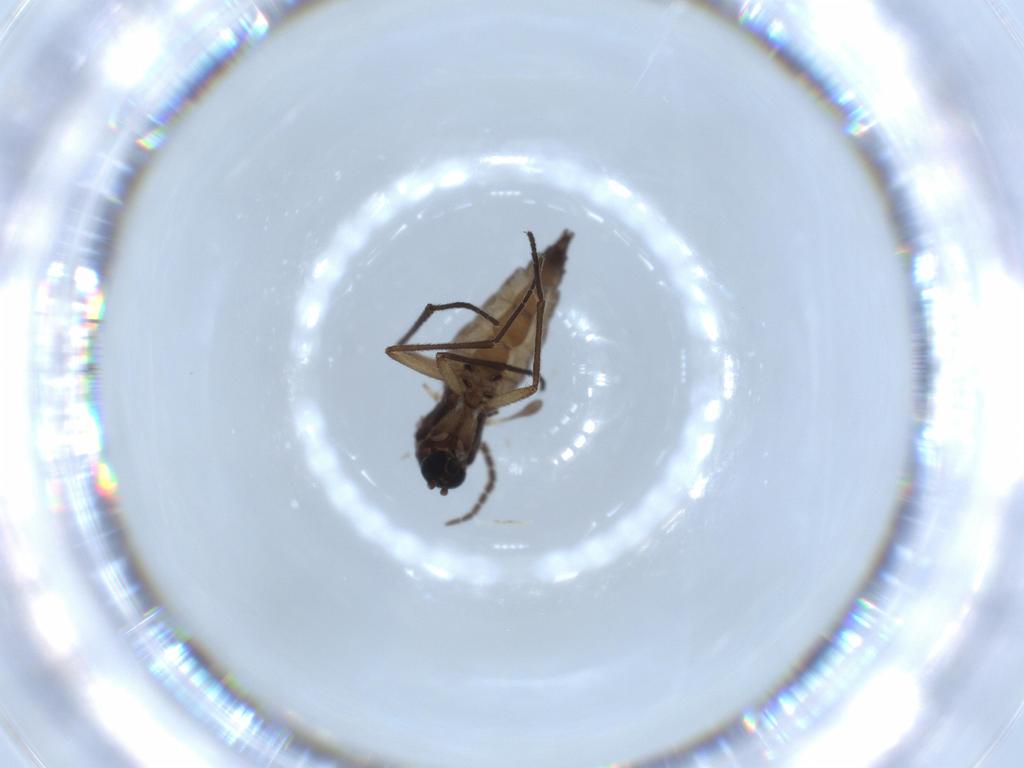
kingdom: Animalia
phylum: Arthropoda
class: Insecta
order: Diptera
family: Sciaridae
